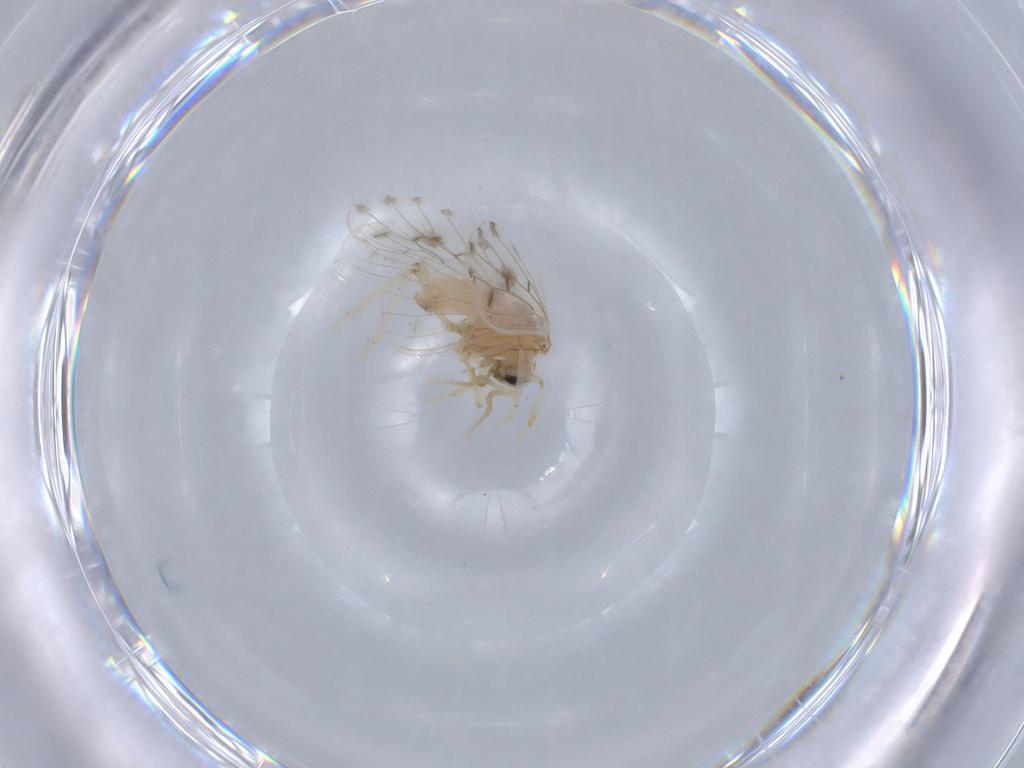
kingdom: Animalia
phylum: Arthropoda
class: Insecta
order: Neuroptera
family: Coniopterygidae
